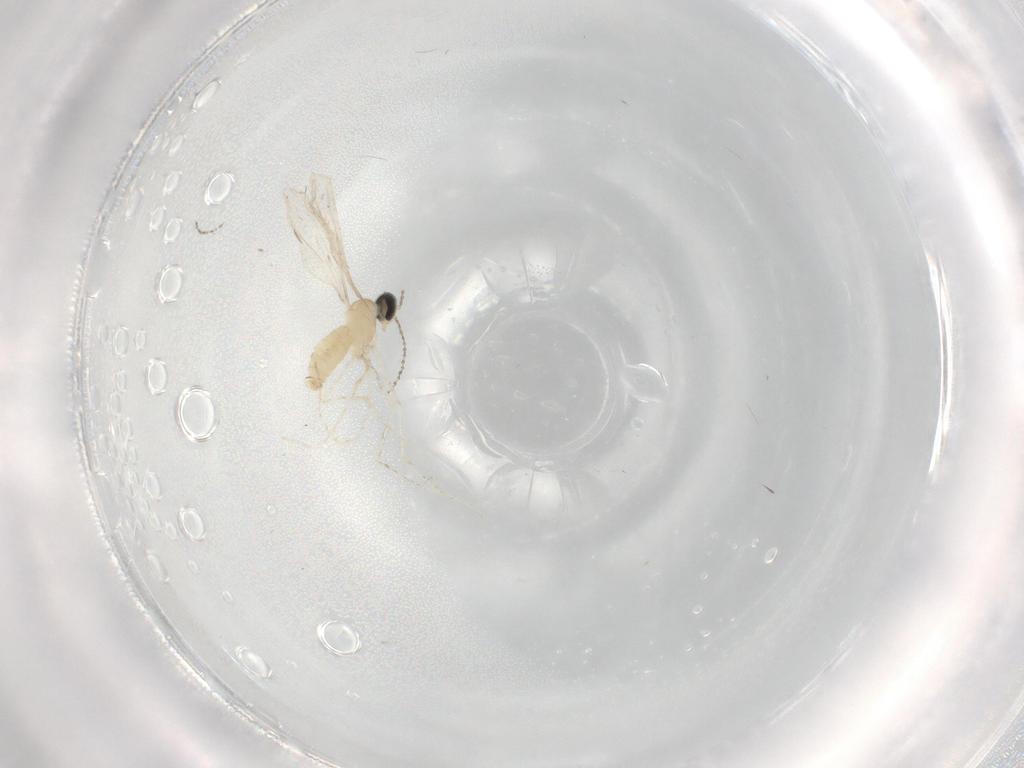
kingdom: Animalia
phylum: Arthropoda
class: Insecta
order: Diptera
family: Cecidomyiidae
